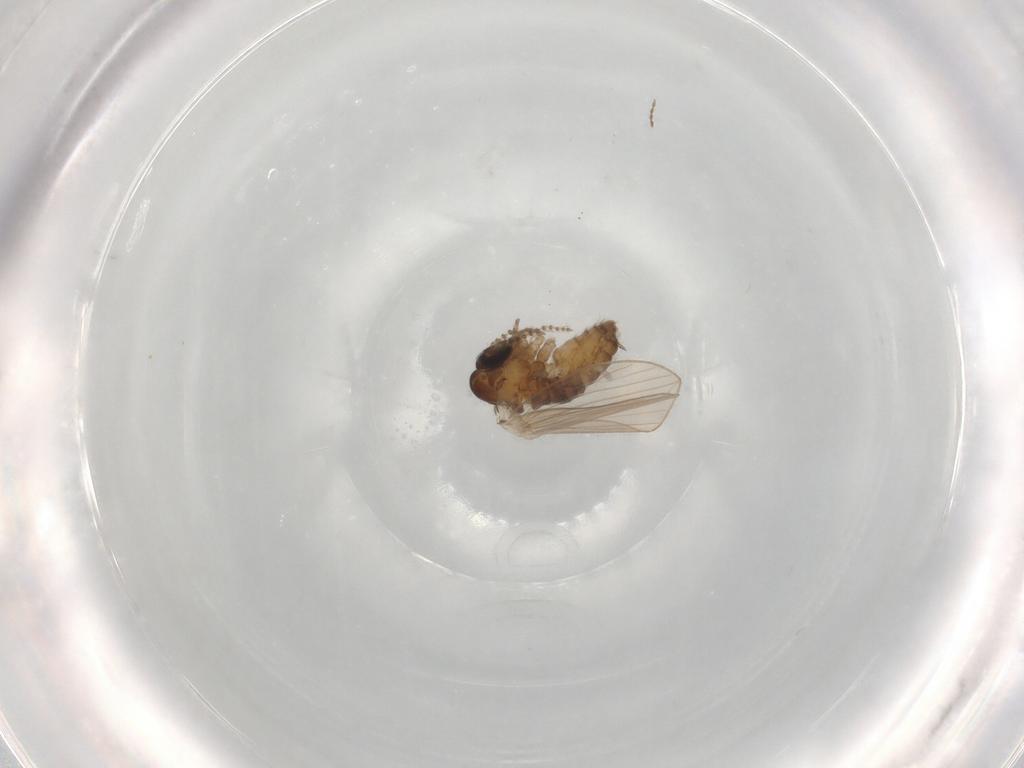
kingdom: Animalia
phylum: Arthropoda
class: Insecta
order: Diptera
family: Psychodidae
